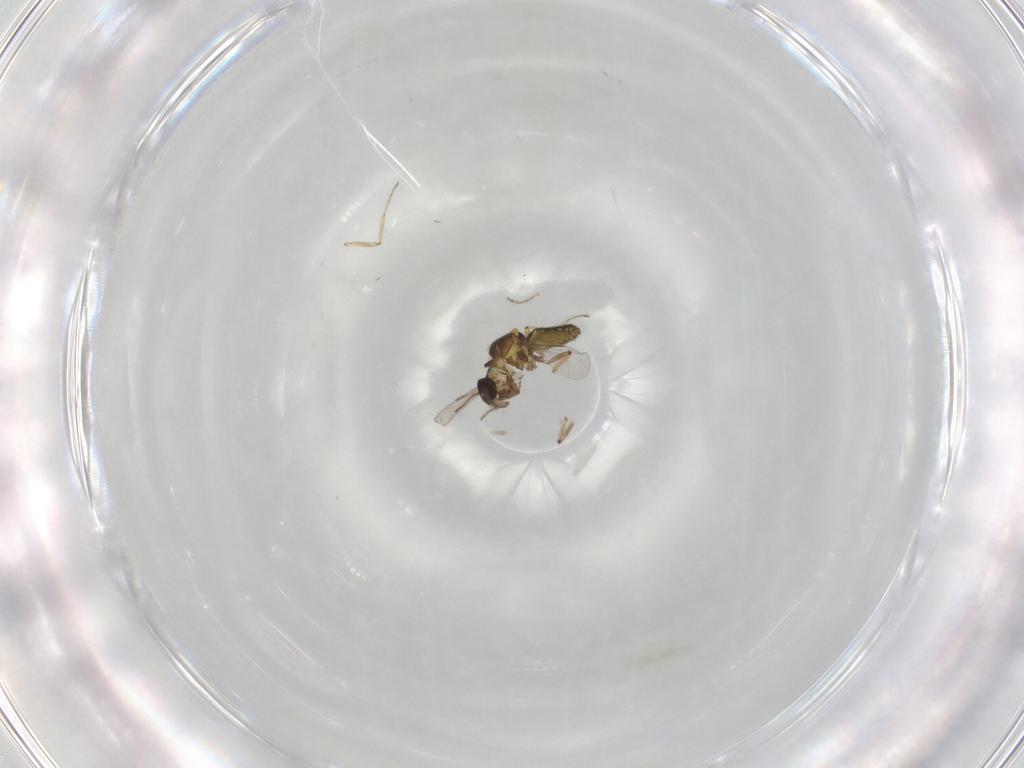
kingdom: Animalia
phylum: Arthropoda
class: Insecta
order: Diptera
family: Ceratopogonidae
